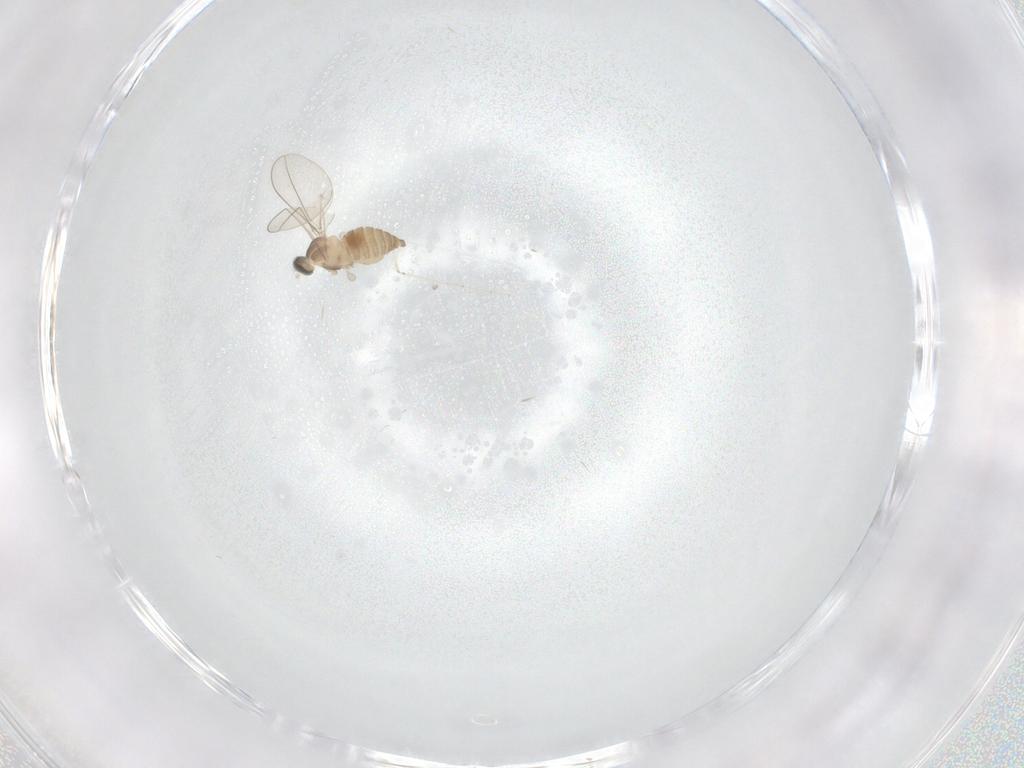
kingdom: Animalia
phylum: Arthropoda
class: Insecta
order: Diptera
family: Cecidomyiidae
